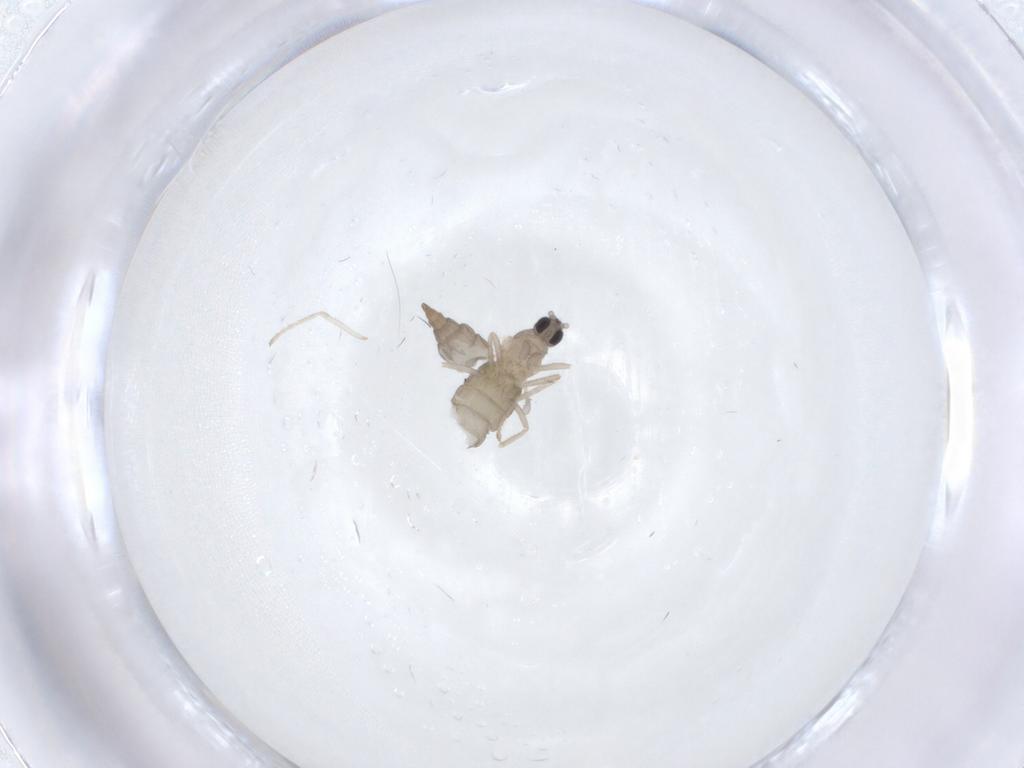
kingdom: Animalia
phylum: Arthropoda
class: Insecta
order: Diptera
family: Cecidomyiidae
